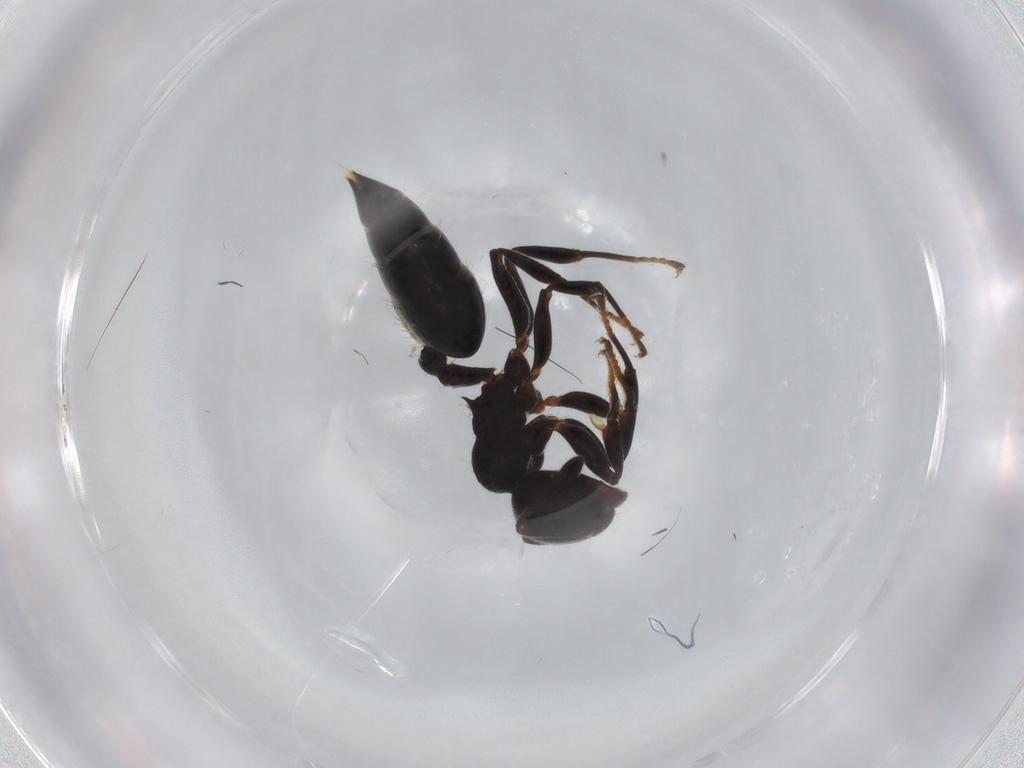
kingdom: Animalia
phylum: Arthropoda
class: Insecta
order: Hymenoptera
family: Formicidae
